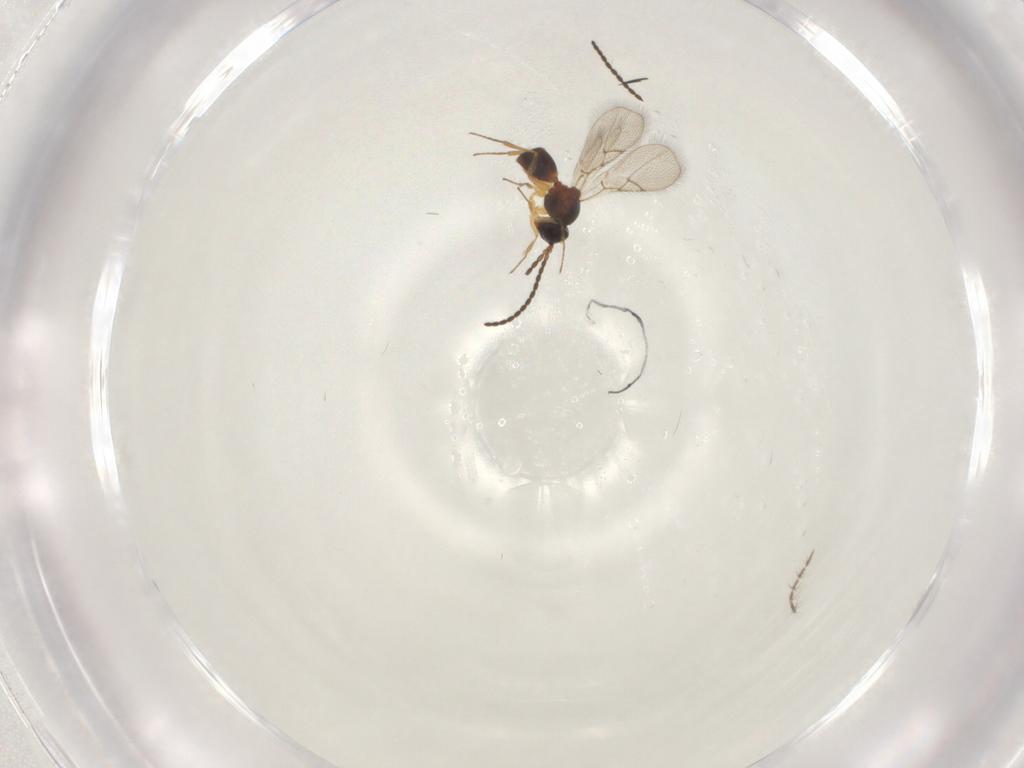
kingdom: Animalia
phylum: Arthropoda
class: Insecta
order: Hymenoptera
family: Figitidae
